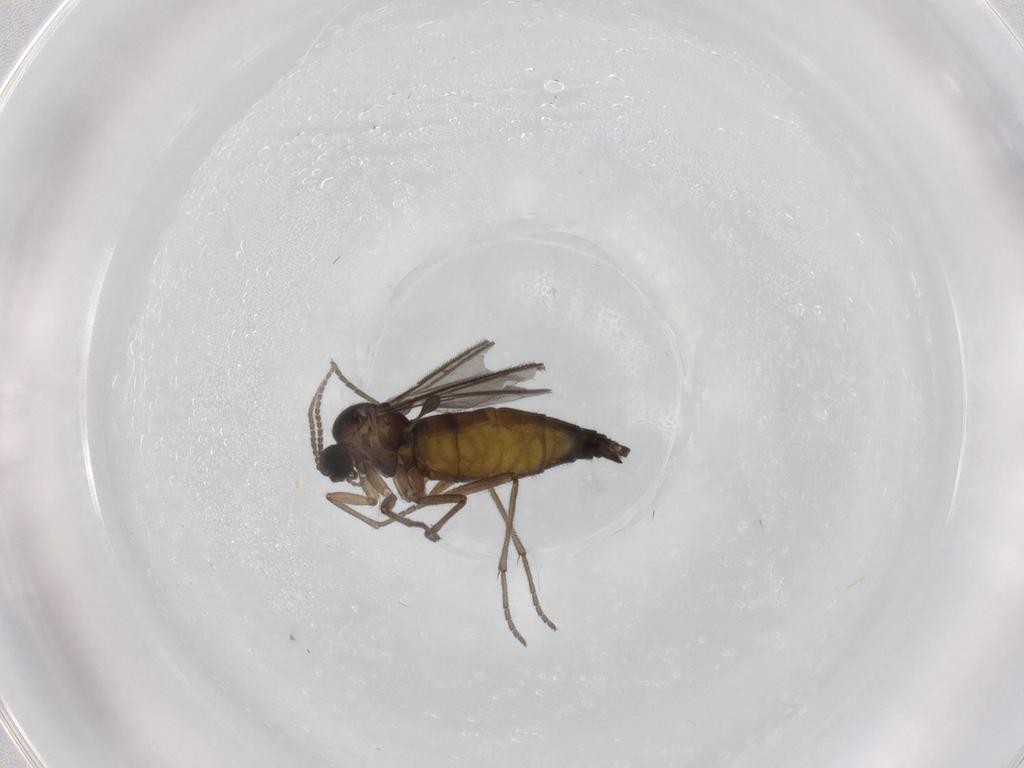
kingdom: Animalia
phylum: Arthropoda
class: Insecta
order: Diptera
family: Sciaridae
